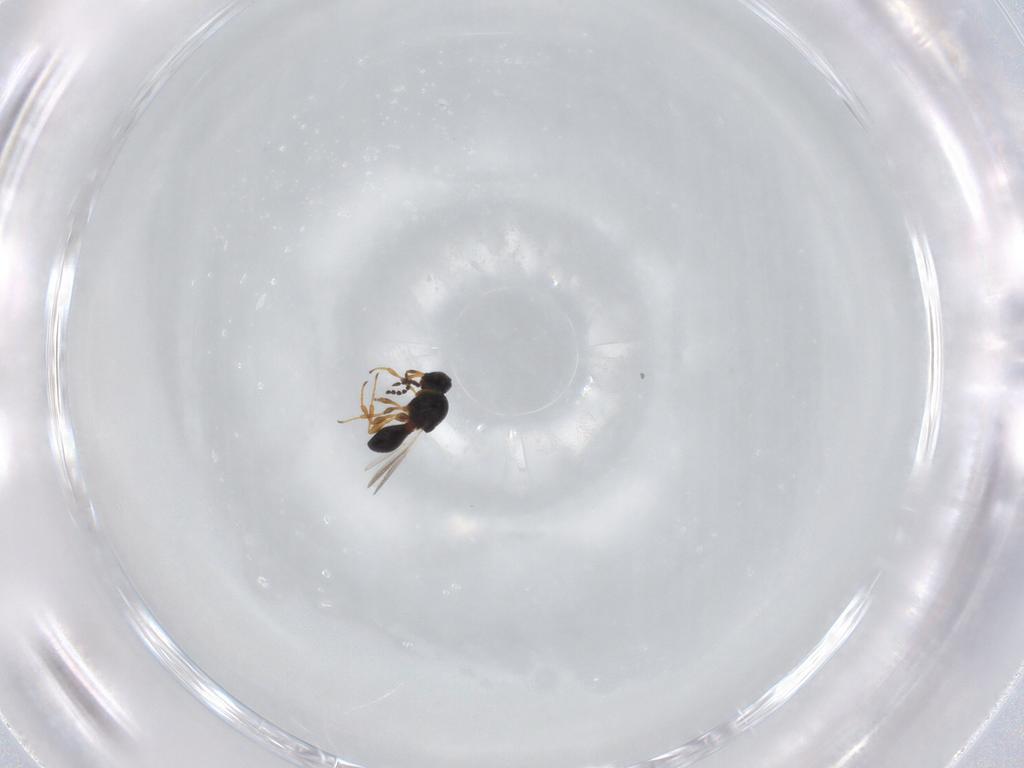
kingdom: Animalia
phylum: Arthropoda
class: Insecta
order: Hymenoptera
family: Platygastridae
